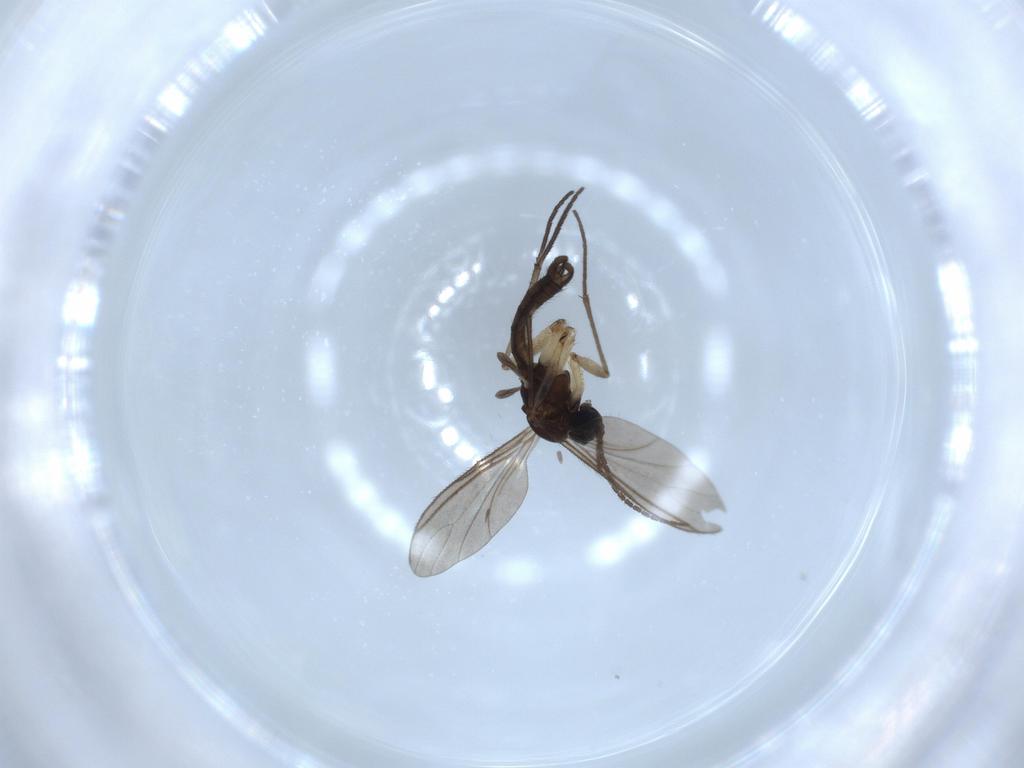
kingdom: Animalia
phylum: Arthropoda
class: Insecta
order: Diptera
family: Sciaridae
